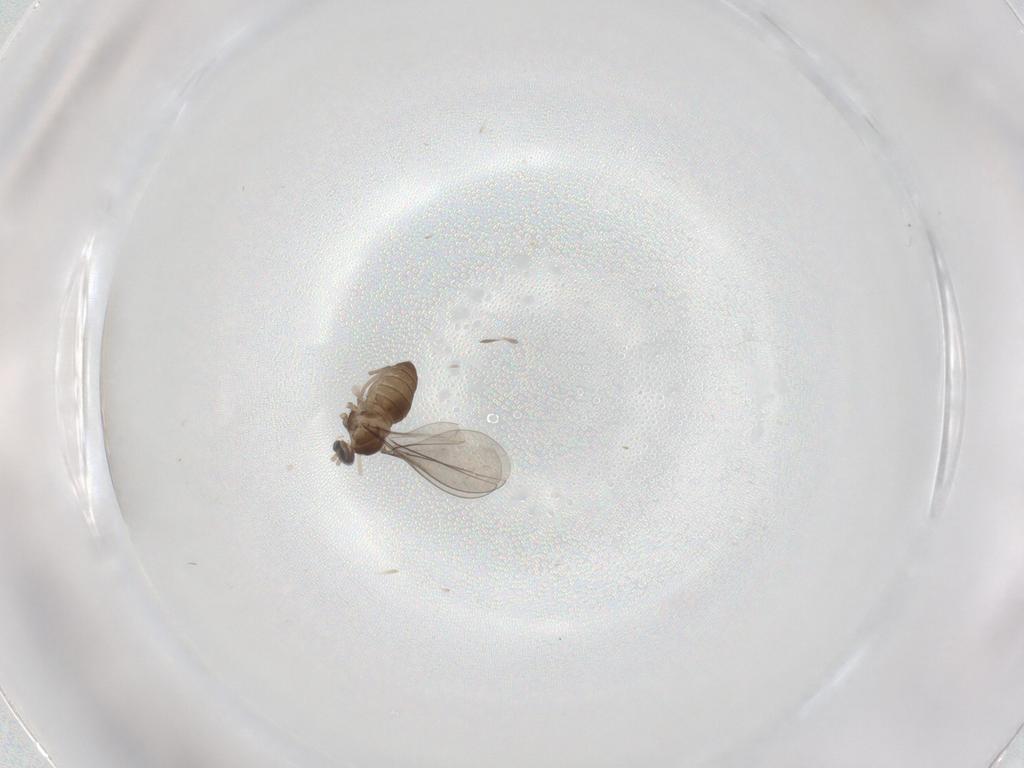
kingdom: Animalia
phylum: Arthropoda
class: Insecta
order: Diptera
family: Cecidomyiidae
